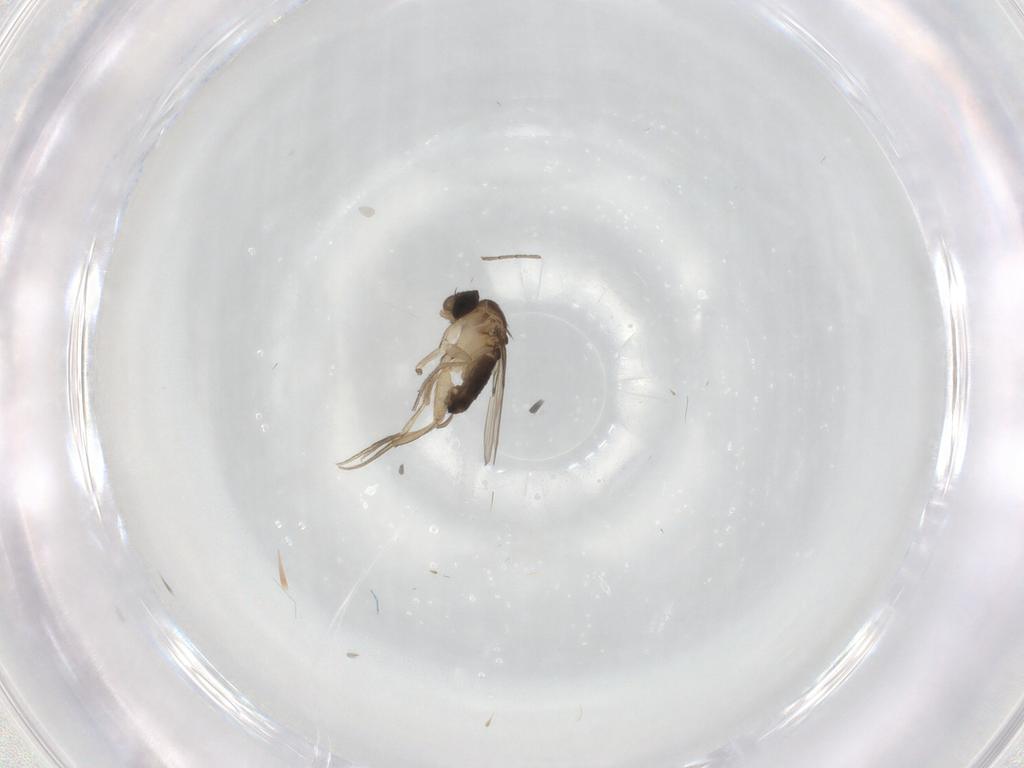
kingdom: Animalia
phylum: Arthropoda
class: Insecta
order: Diptera
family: Phoridae
